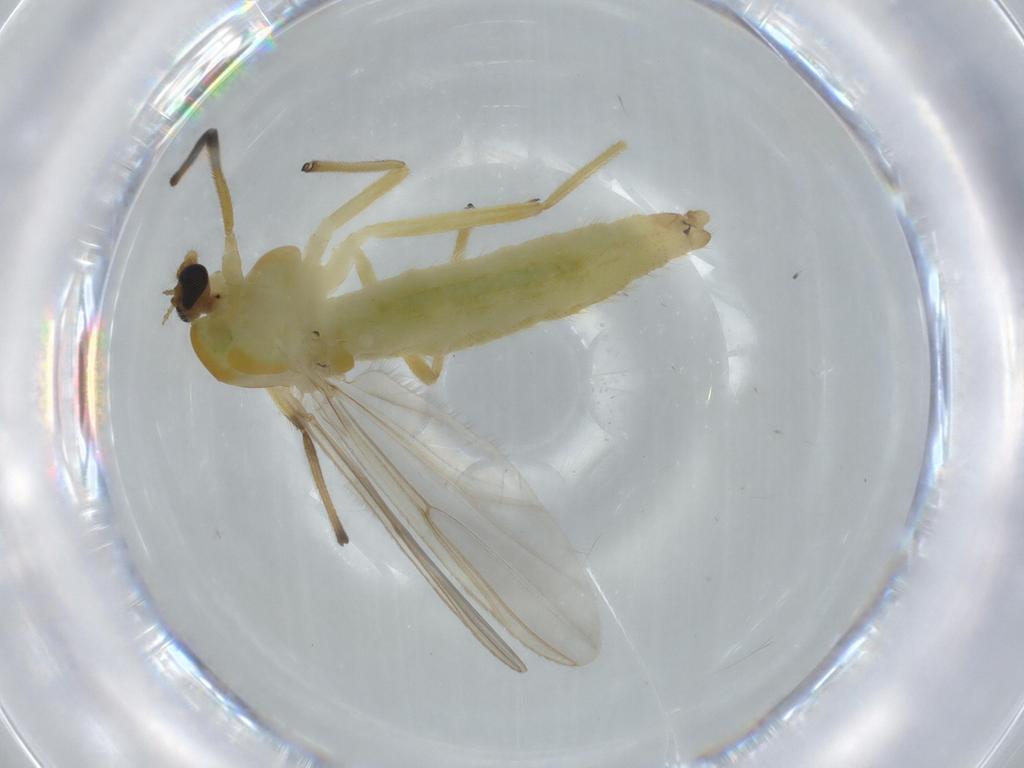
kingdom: Animalia
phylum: Arthropoda
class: Insecta
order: Diptera
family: Chironomidae
